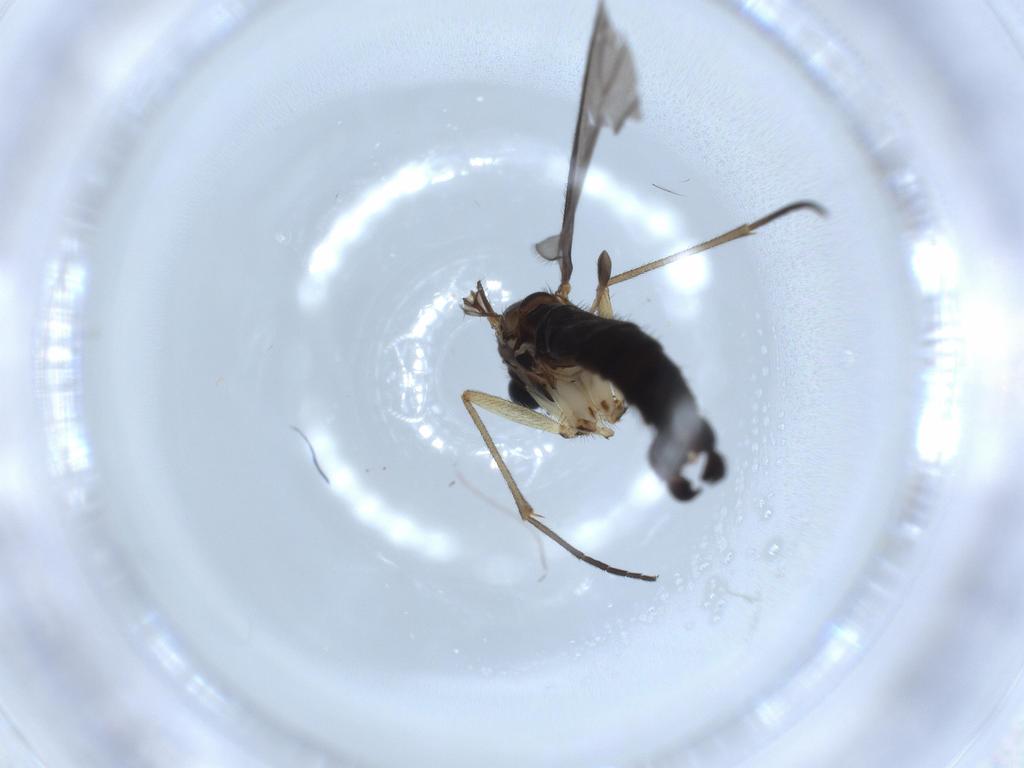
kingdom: Animalia
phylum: Arthropoda
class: Insecta
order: Diptera
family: Sciaridae
